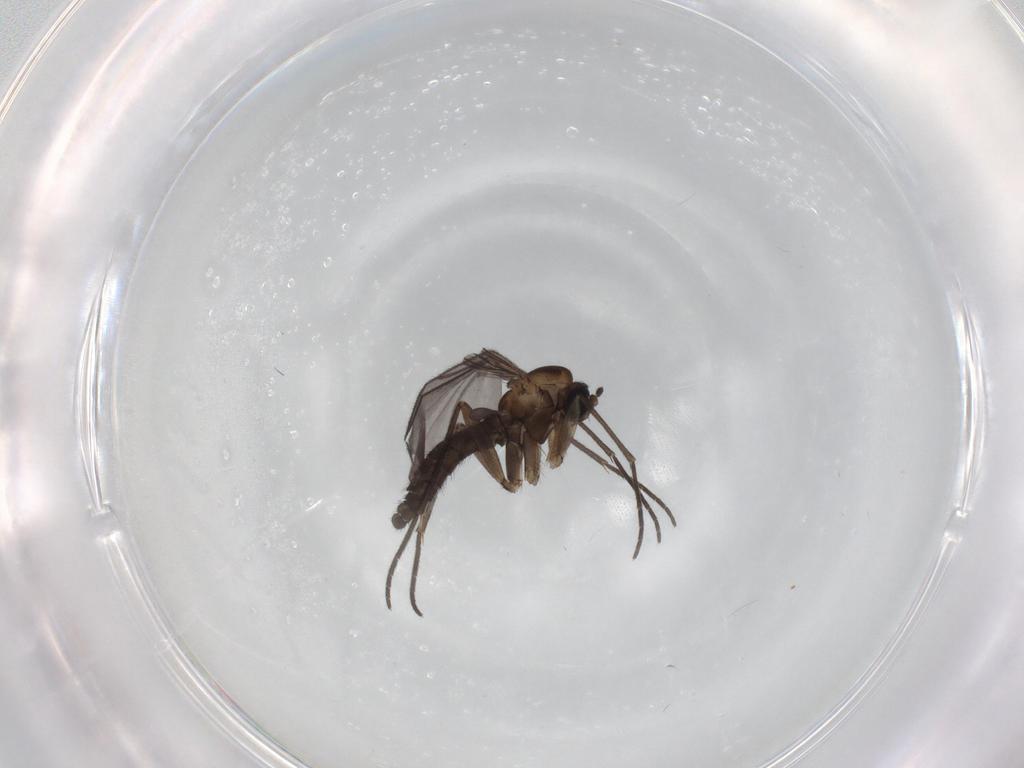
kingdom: Animalia
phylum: Arthropoda
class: Insecta
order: Diptera
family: Sciaridae
